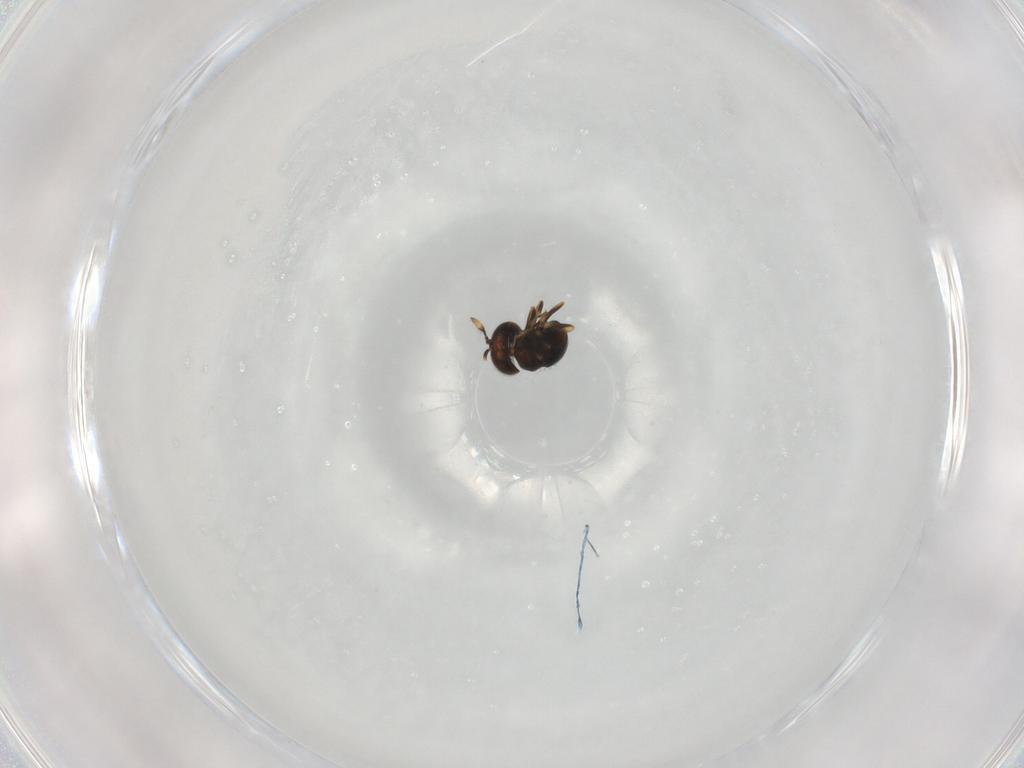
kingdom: Animalia
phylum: Arthropoda
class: Insecta
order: Hymenoptera
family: Scelionidae
